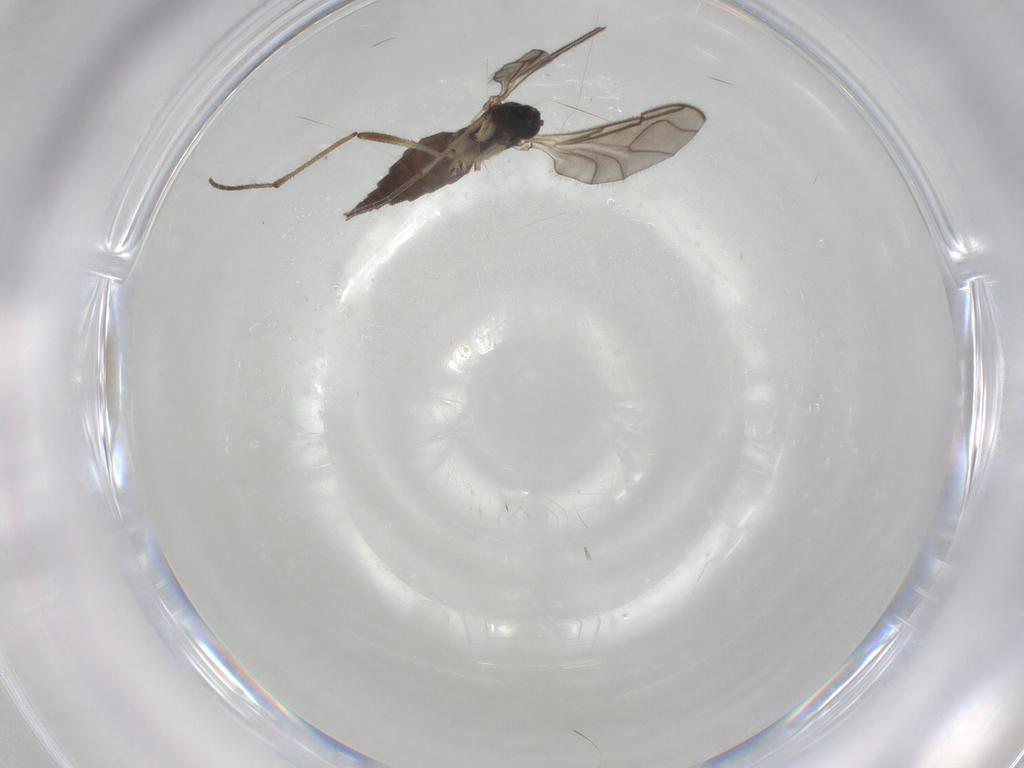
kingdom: Animalia
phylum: Arthropoda
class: Insecta
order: Diptera
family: Sciaridae
